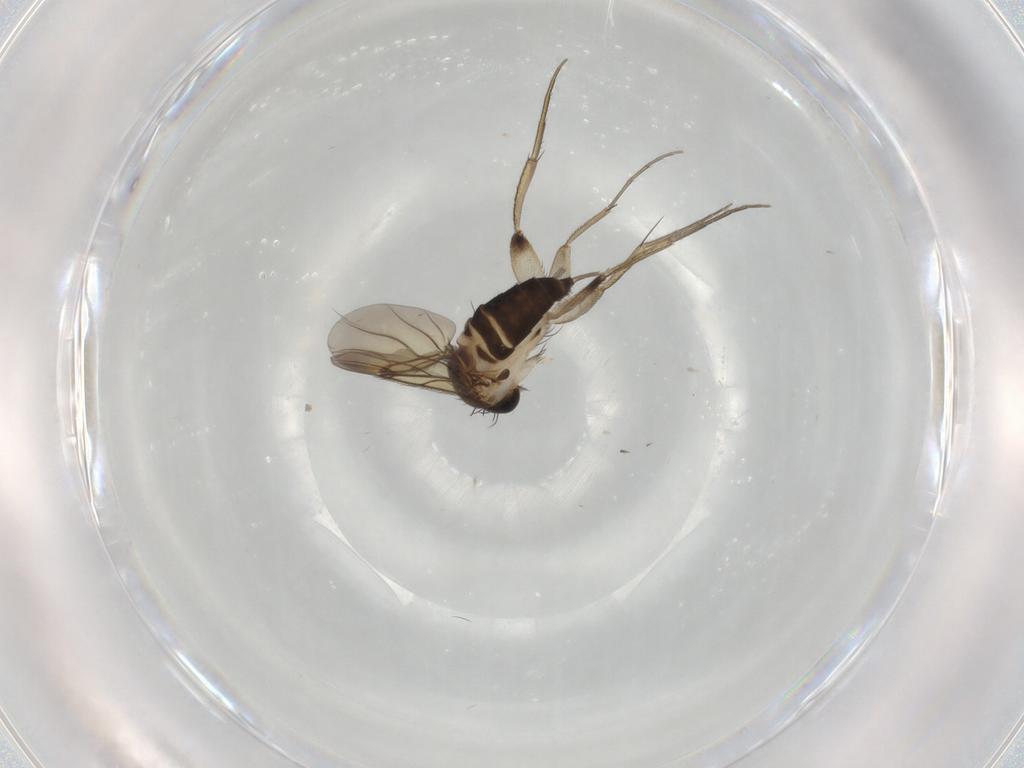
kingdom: Animalia
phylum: Arthropoda
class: Insecta
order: Diptera
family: Phoridae
